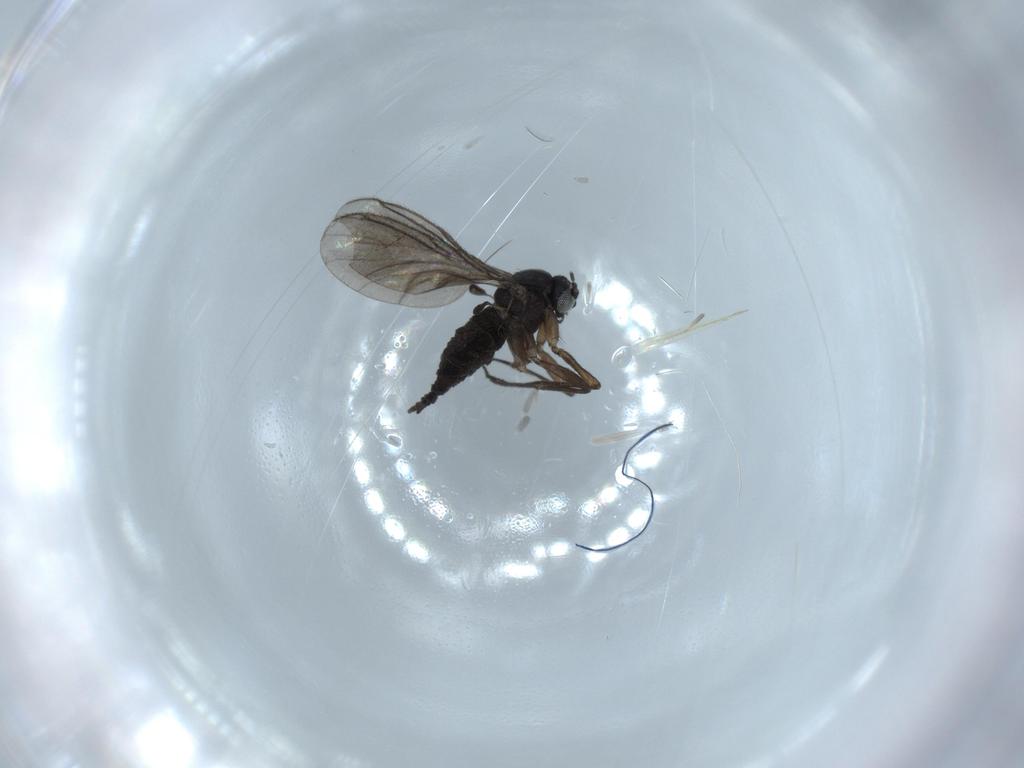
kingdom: Animalia
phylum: Arthropoda
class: Insecta
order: Diptera
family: Sciaridae
